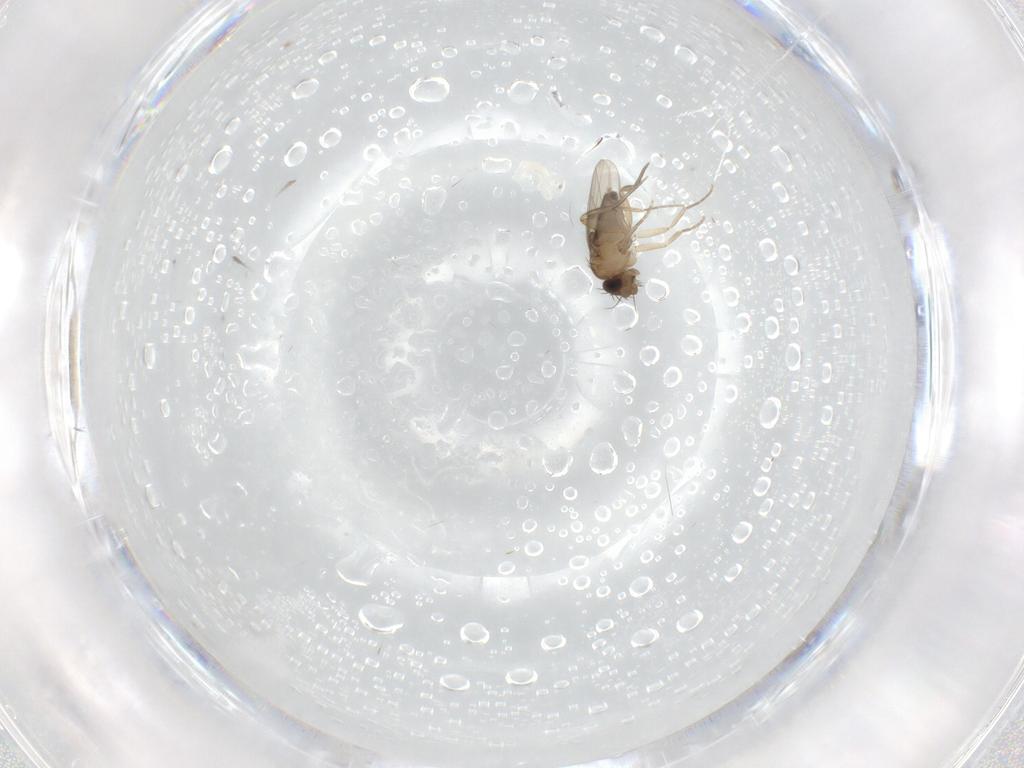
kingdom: Animalia
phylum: Arthropoda
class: Insecta
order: Diptera
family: Phoridae
